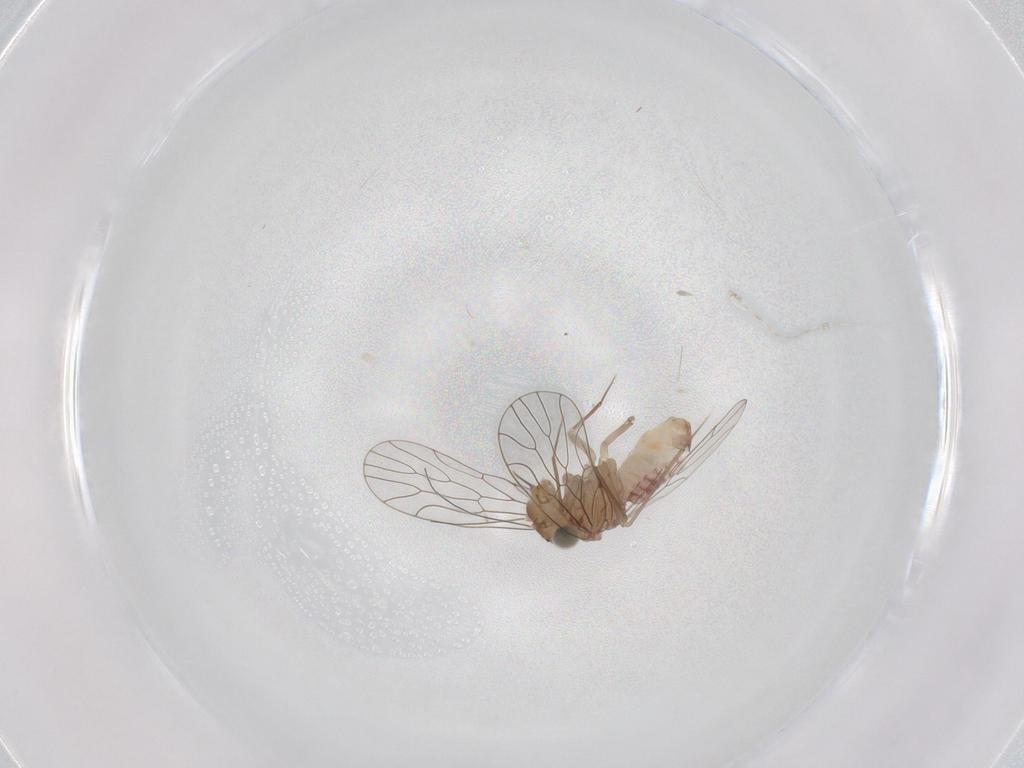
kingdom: Animalia
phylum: Arthropoda
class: Insecta
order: Psocodea
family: Amphientomidae
